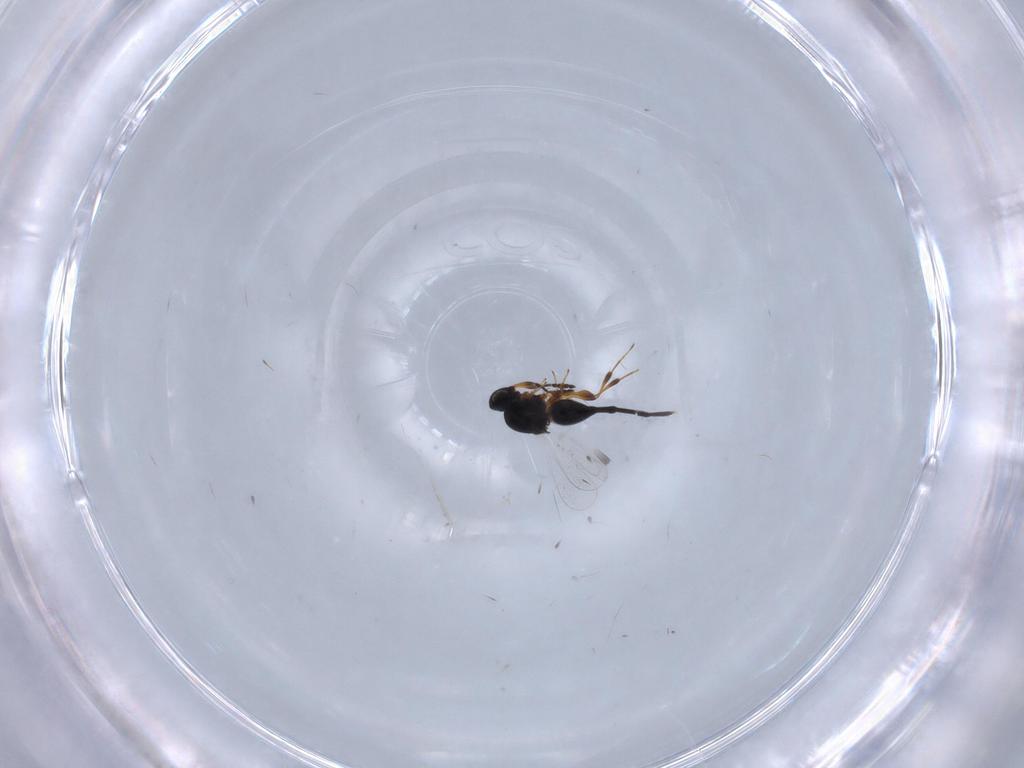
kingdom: Animalia
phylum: Arthropoda
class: Insecta
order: Hymenoptera
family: Platygastridae
